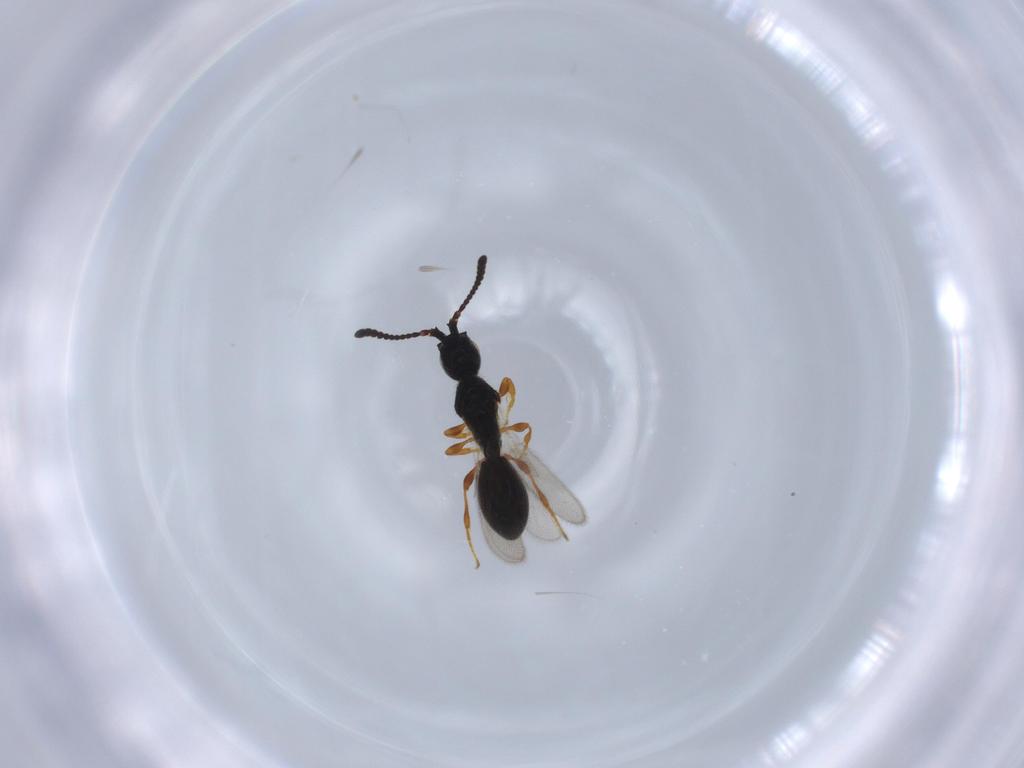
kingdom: Animalia
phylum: Arthropoda
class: Insecta
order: Hymenoptera
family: Diapriidae
